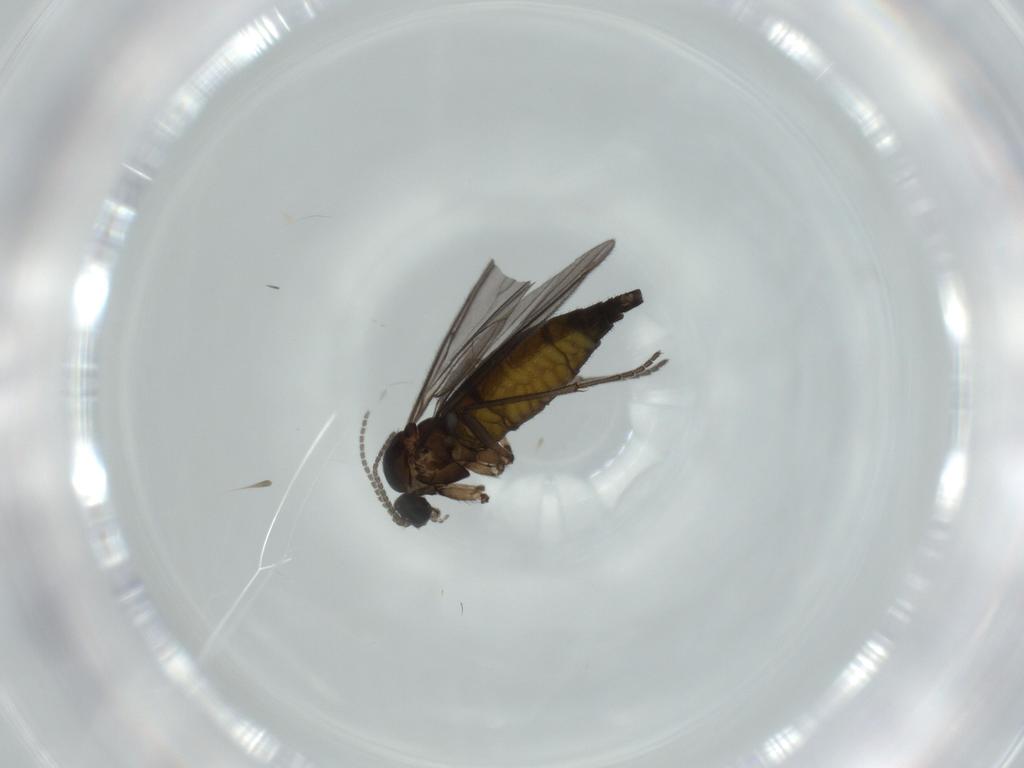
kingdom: Animalia
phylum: Arthropoda
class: Insecta
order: Diptera
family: Sciaridae
